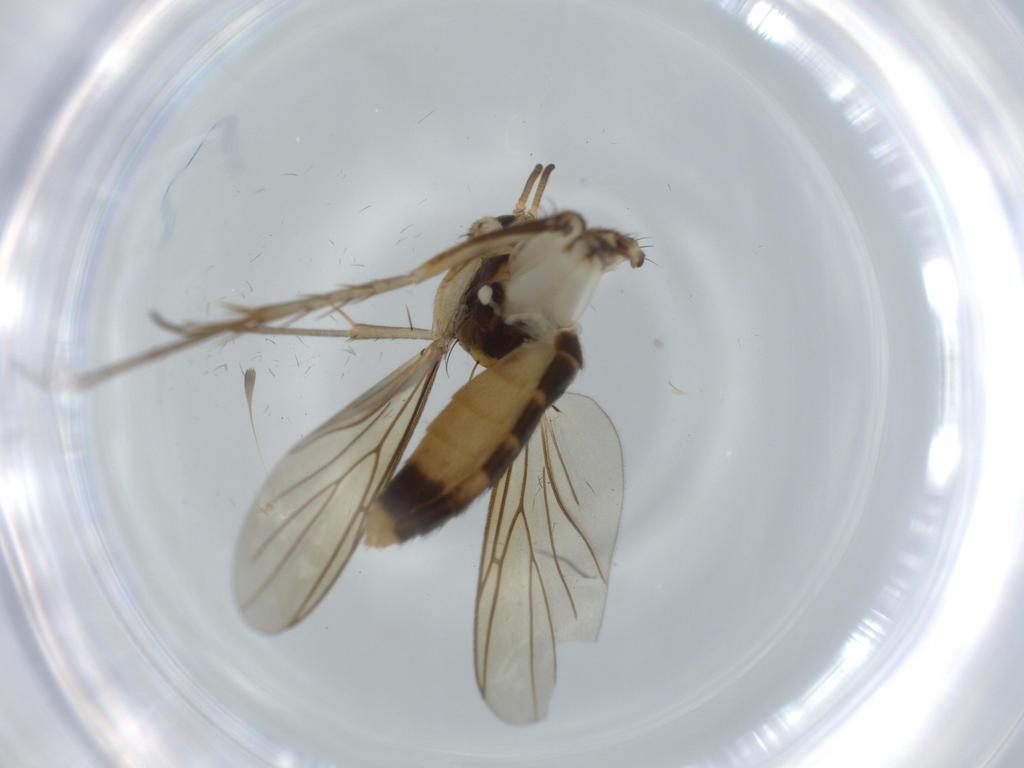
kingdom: Animalia
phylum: Arthropoda
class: Insecta
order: Diptera
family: Mycetophilidae
